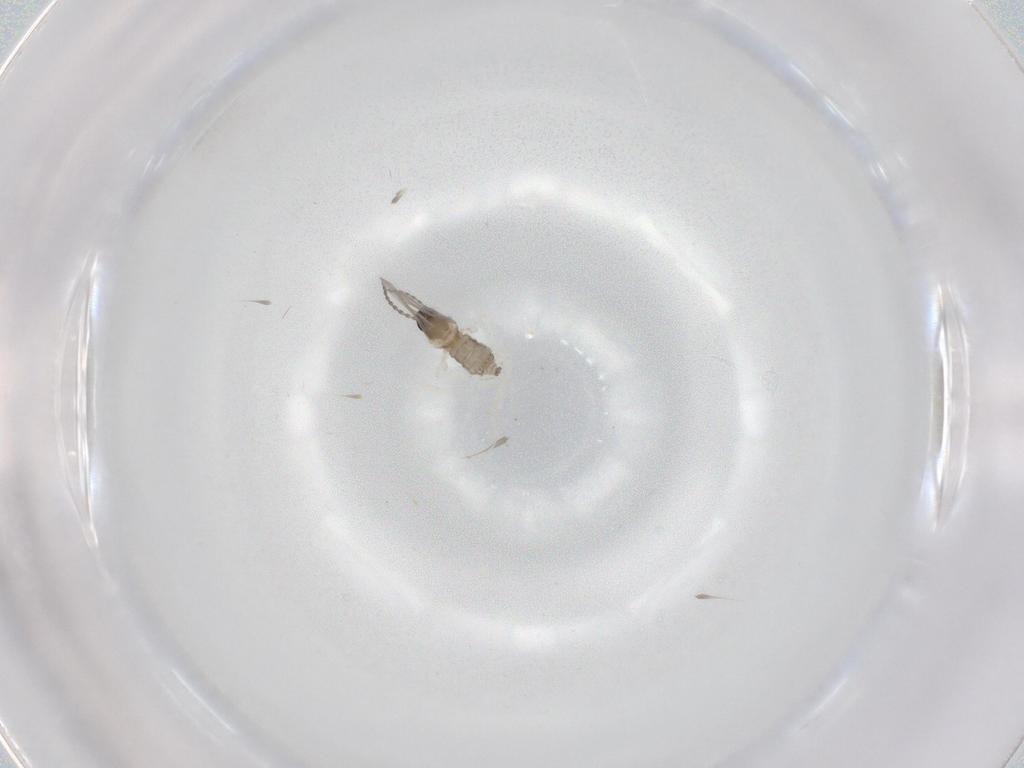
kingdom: Animalia
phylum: Arthropoda
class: Insecta
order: Diptera
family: Cecidomyiidae
